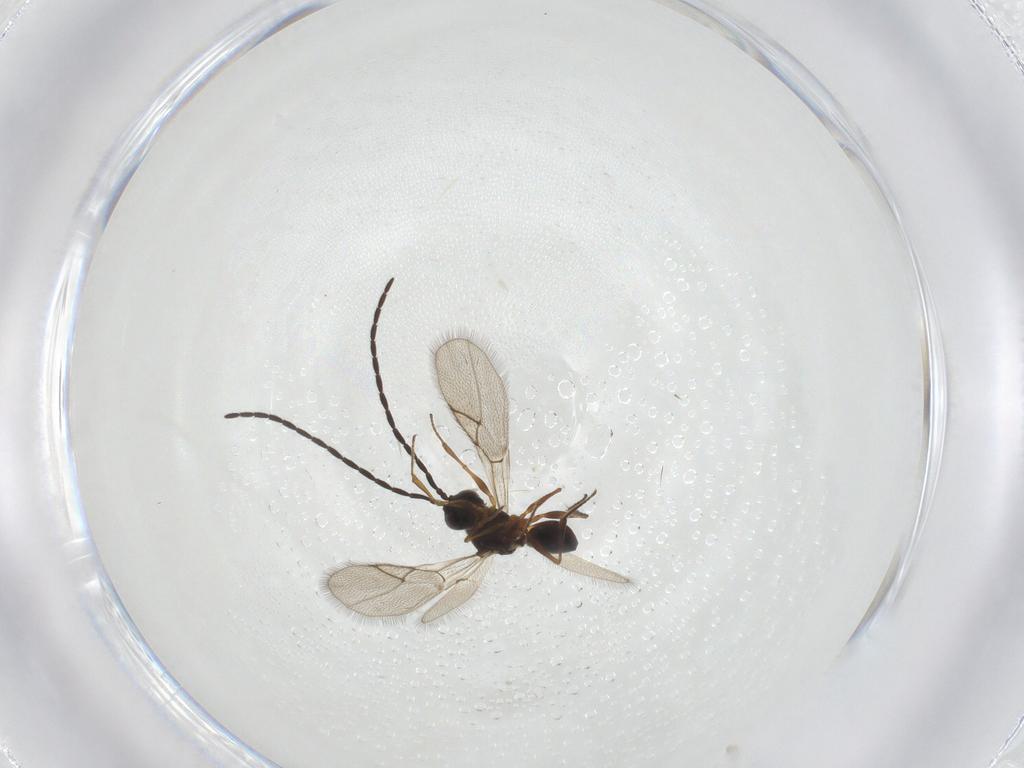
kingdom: Animalia
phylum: Arthropoda
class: Insecta
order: Hymenoptera
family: Figitidae
